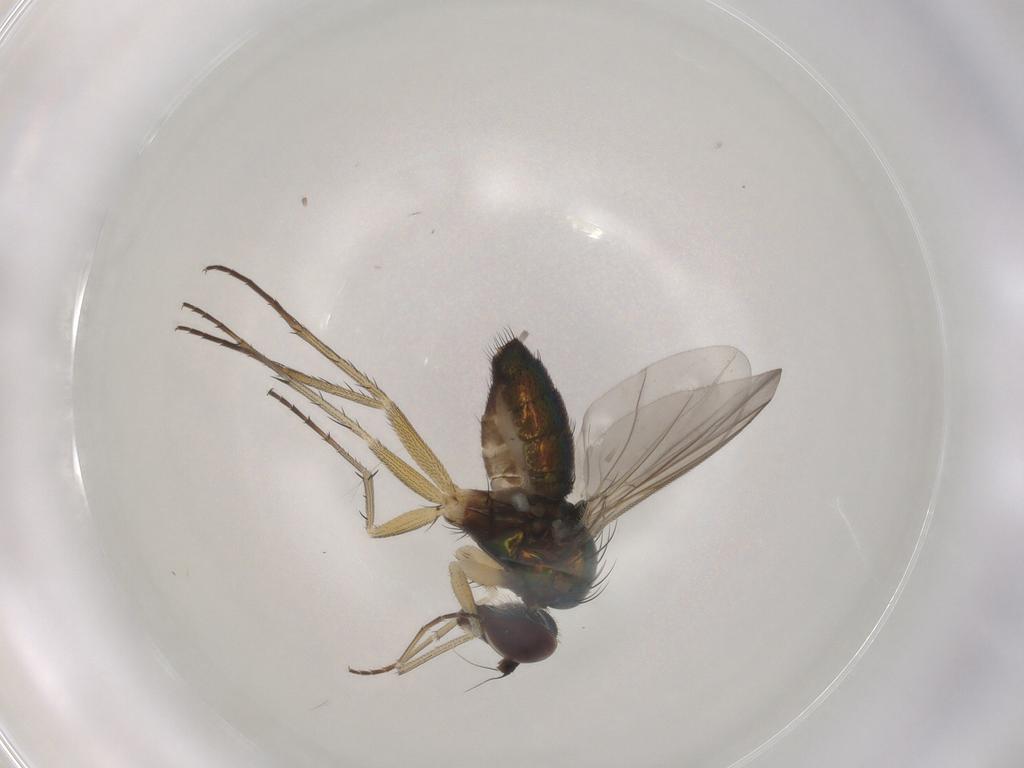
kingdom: Animalia
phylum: Arthropoda
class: Insecta
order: Diptera
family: Dolichopodidae
